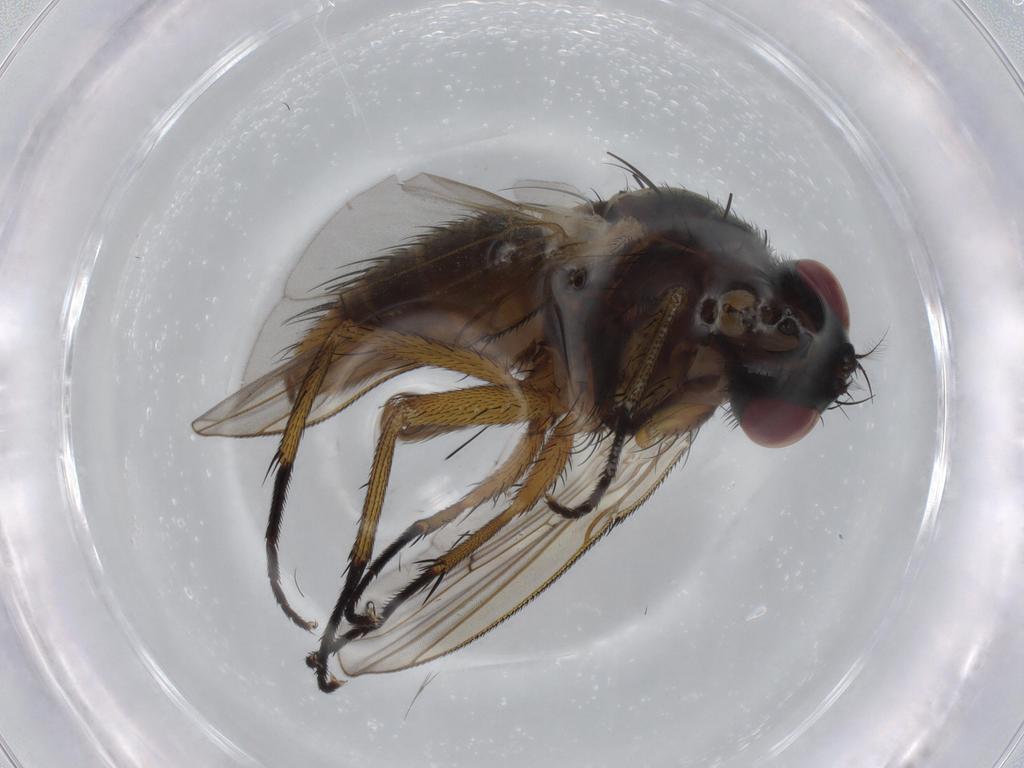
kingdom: Animalia
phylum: Arthropoda
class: Insecta
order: Diptera
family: Muscidae
